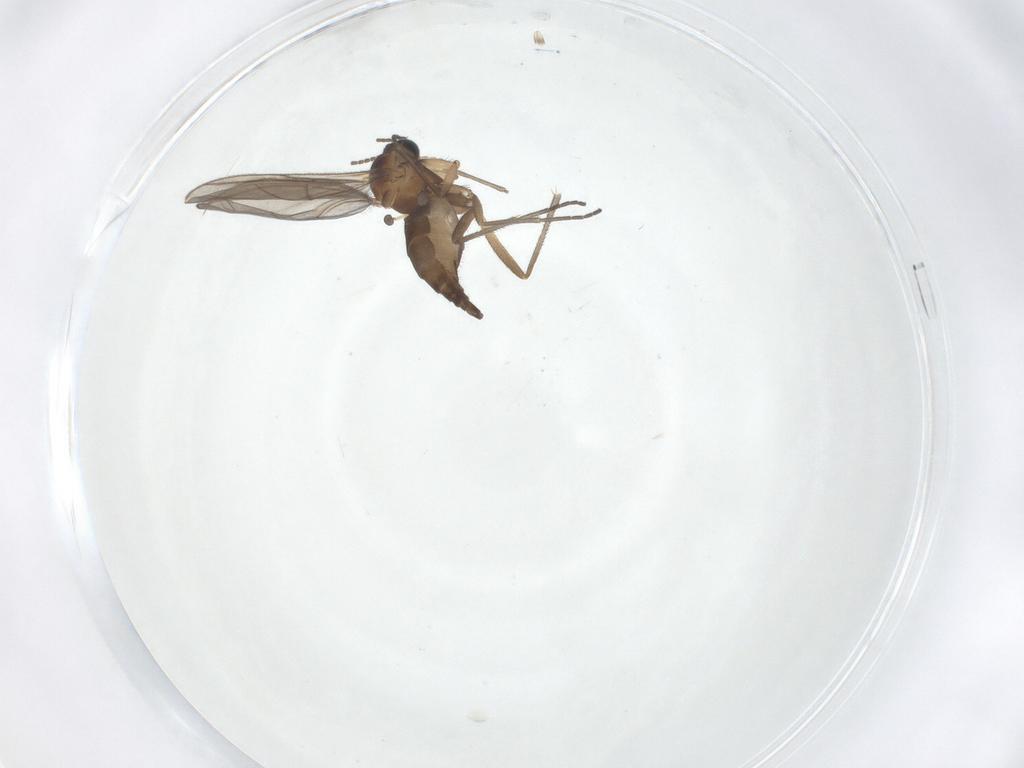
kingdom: Animalia
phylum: Arthropoda
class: Insecta
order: Diptera
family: Sciaridae
